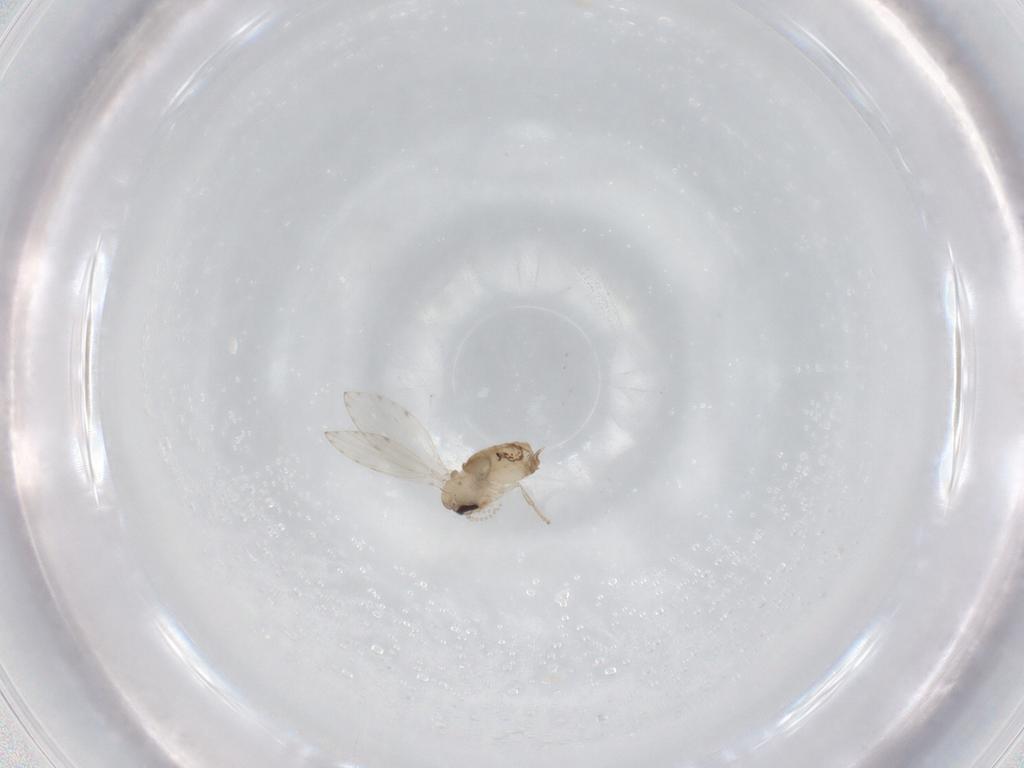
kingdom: Animalia
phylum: Arthropoda
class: Insecta
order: Diptera
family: Psychodidae
